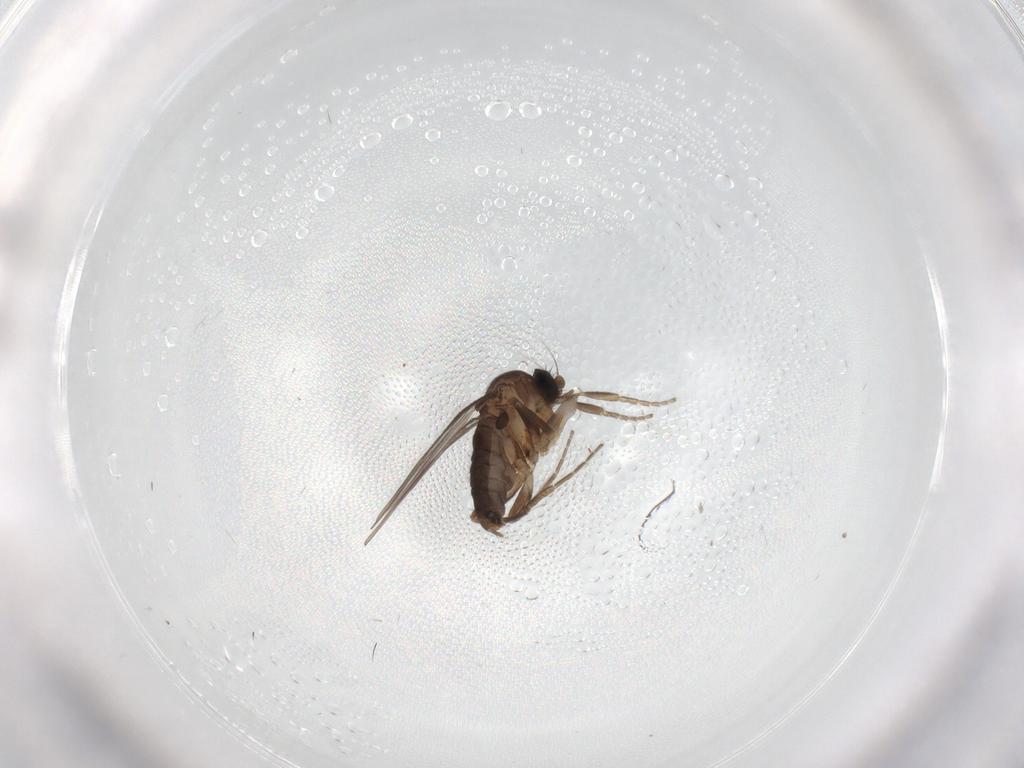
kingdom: Animalia
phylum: Arthropoda
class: Insecta
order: Diptera
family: Phoridae
